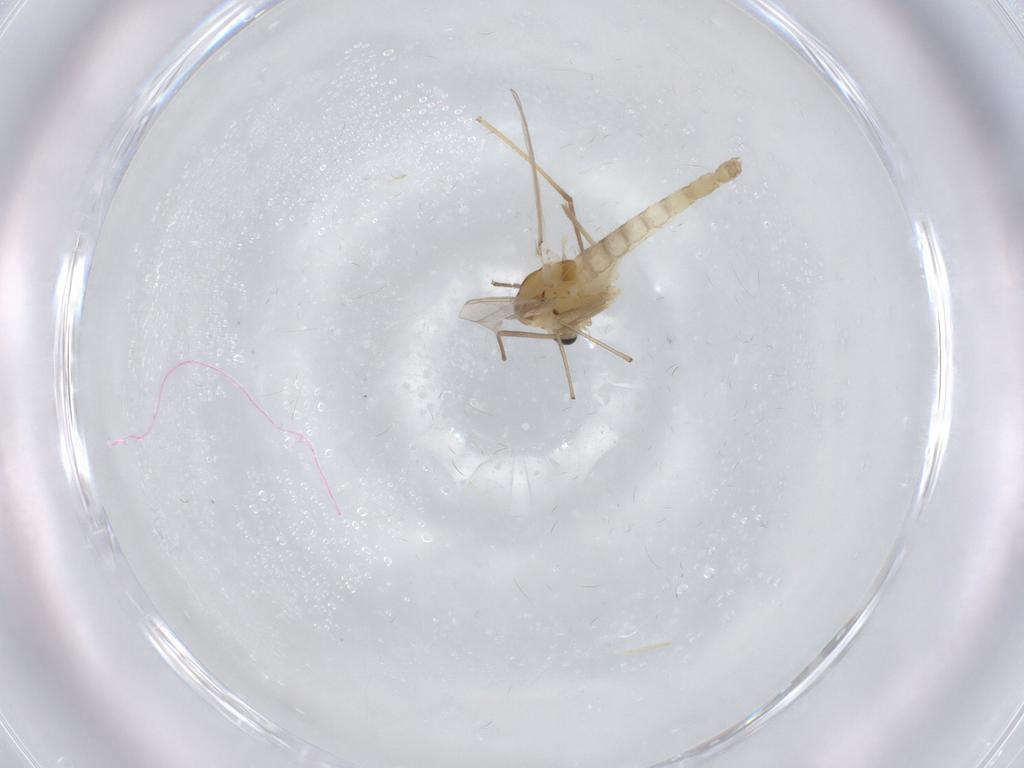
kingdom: Animalia
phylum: Arthropoda
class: Insecta
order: Diptera
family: Chironomidae
